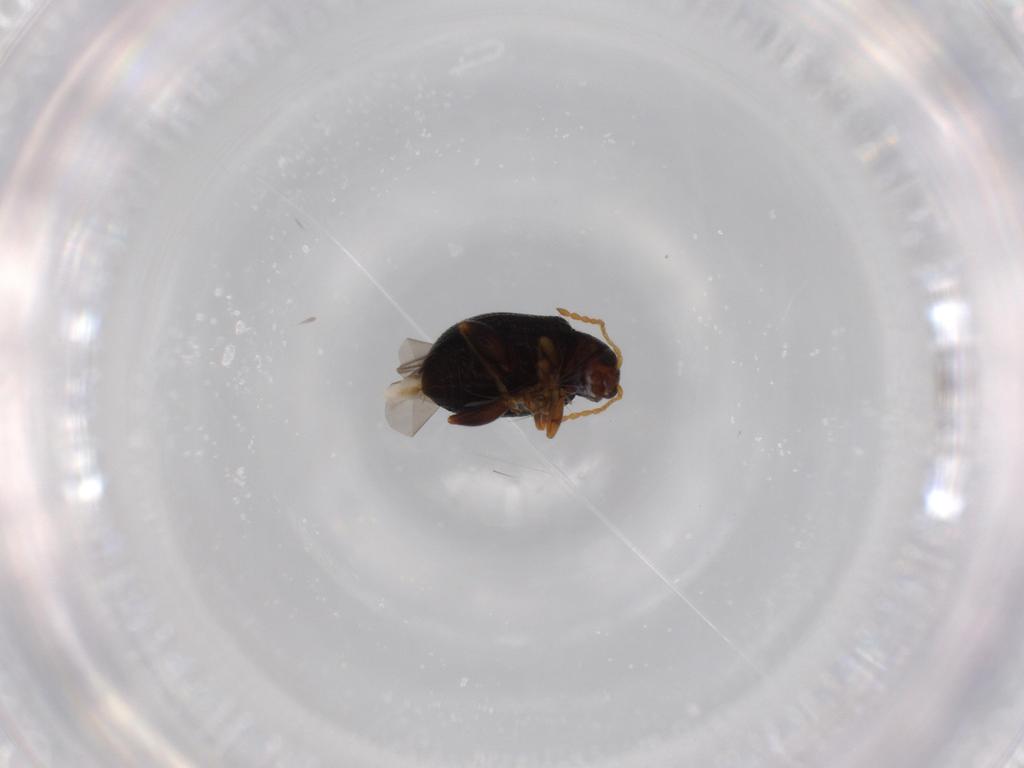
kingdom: Animalia
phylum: Arthropoda
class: Insecta
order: Coleoptera
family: Chrysomelidae
